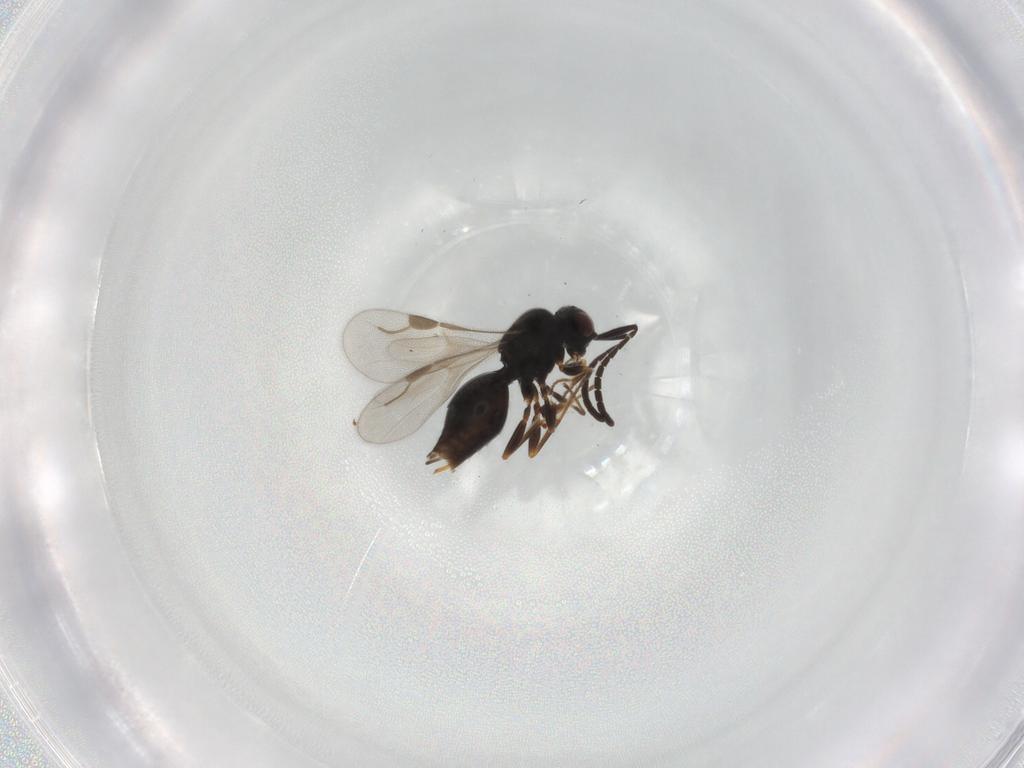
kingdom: Animalia
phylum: Arthropoda
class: Insecta
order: Hymenoptera
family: Megaspilidae
